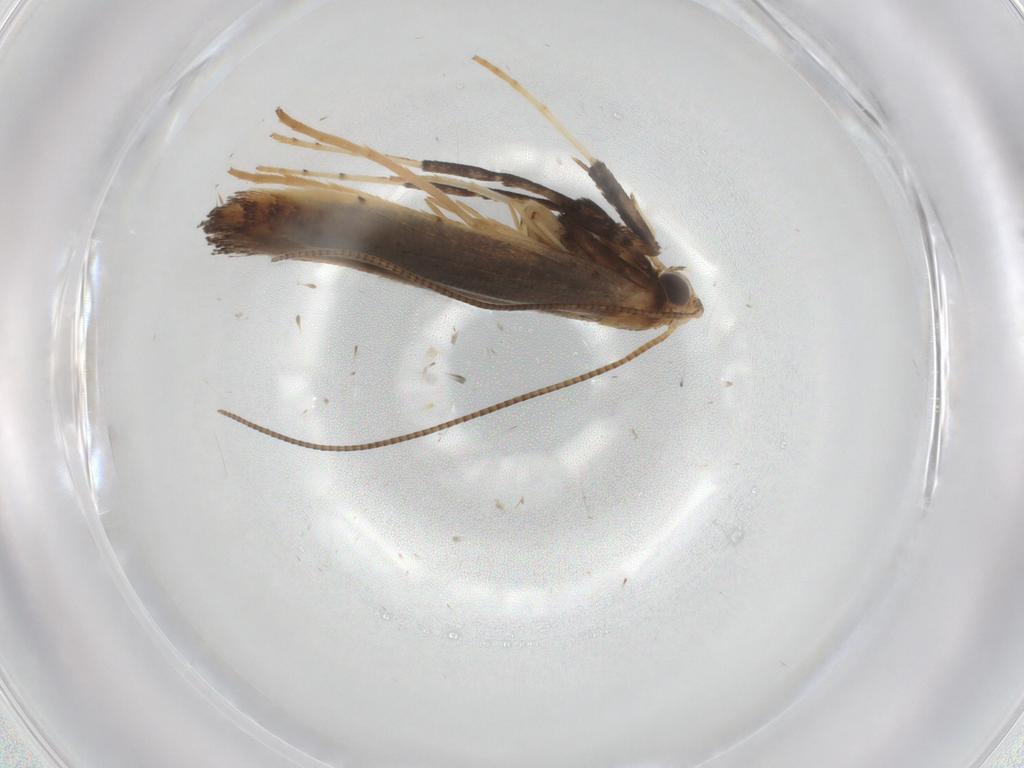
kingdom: Animalia
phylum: Arthropoda
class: Insecta
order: Lepidoptera
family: Gracillariidae
